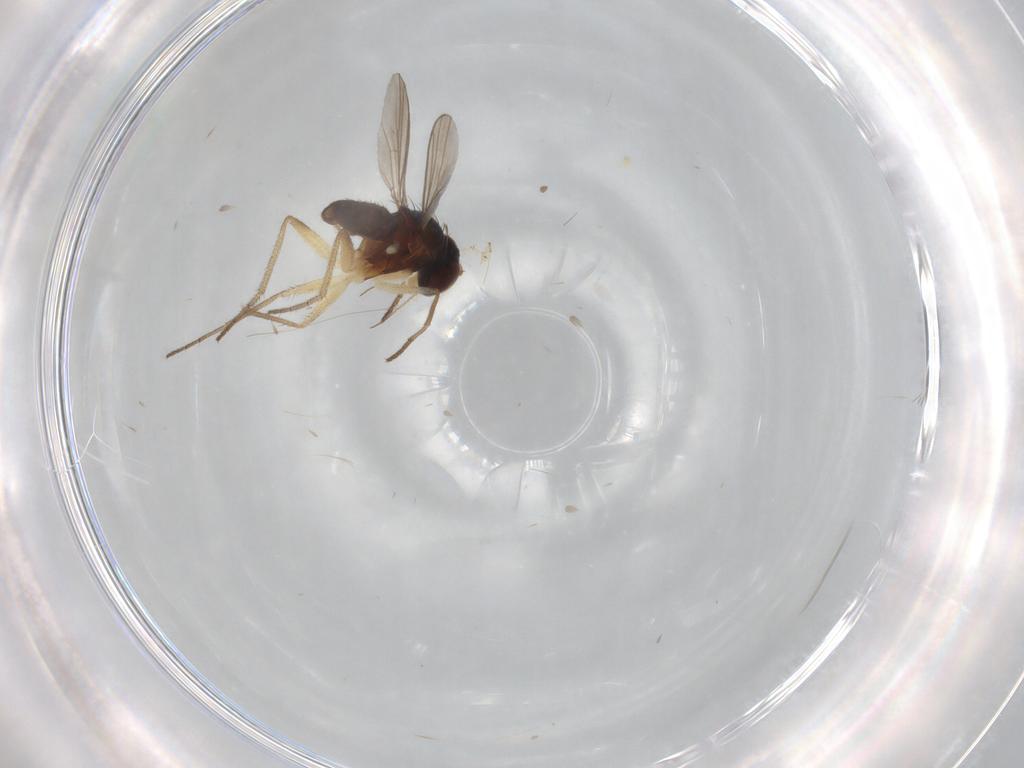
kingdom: Animalia
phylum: Arthropoda
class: Insecta
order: Diptera
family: Dolichopodidae
